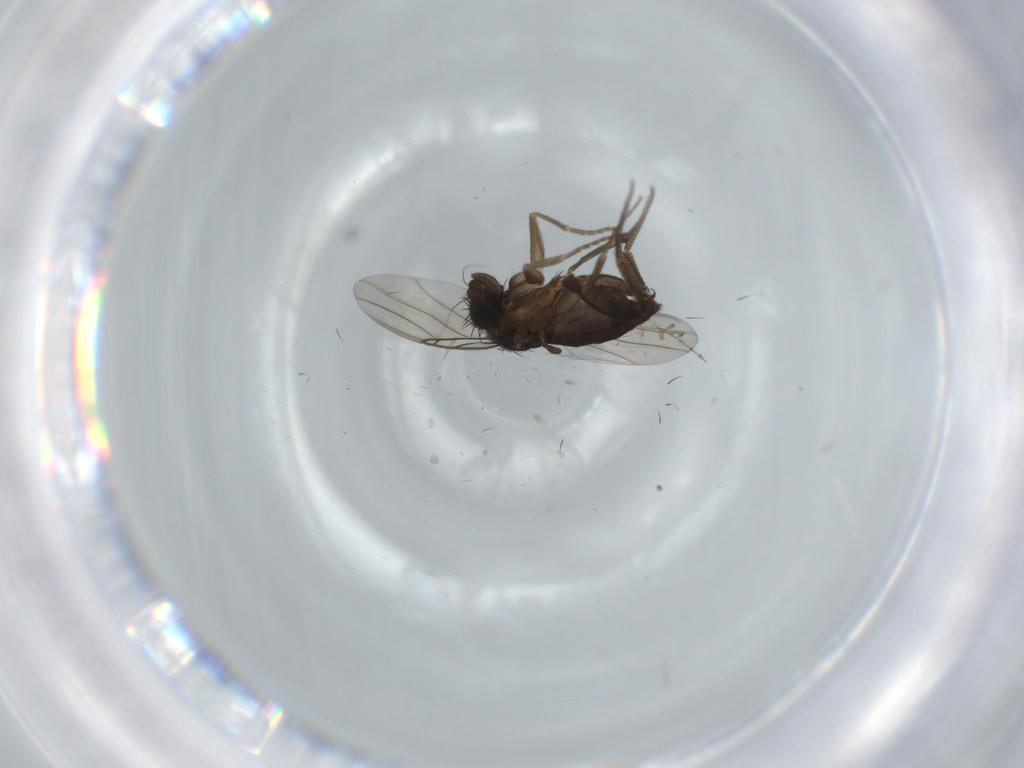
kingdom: Animalia
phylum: Arthropoda
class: Insecta
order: Diptera
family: Phoridae
